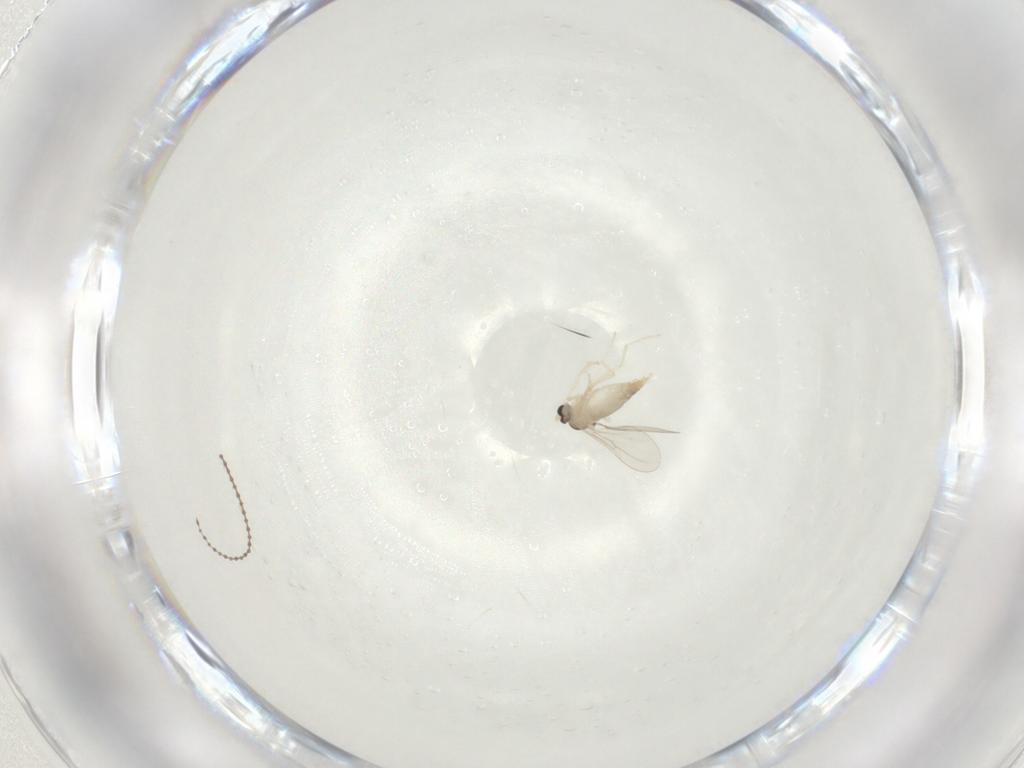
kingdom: Animalia
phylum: Arthropoda
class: Insecta
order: Diptera
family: Cecidomyiidae
